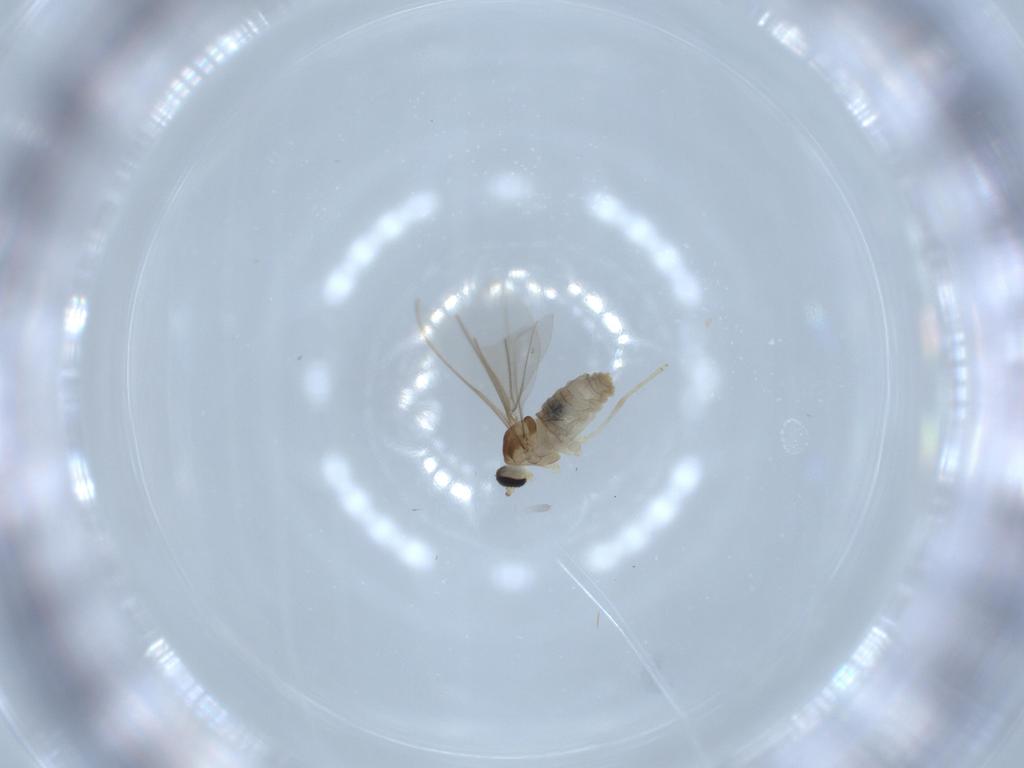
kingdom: Animalia
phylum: Arthropoda
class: Insecta
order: Diptera
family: Cecidomyiidae
